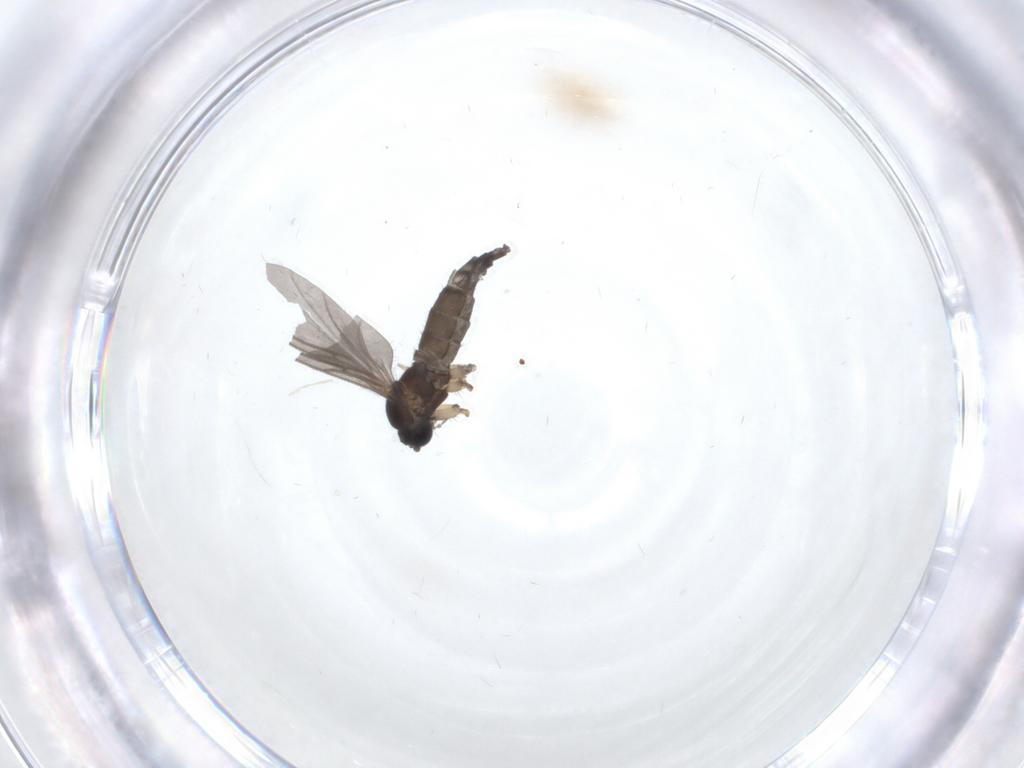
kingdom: Animalia
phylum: Arthropoda
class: Insecta
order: Diptera
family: Sciaridae
